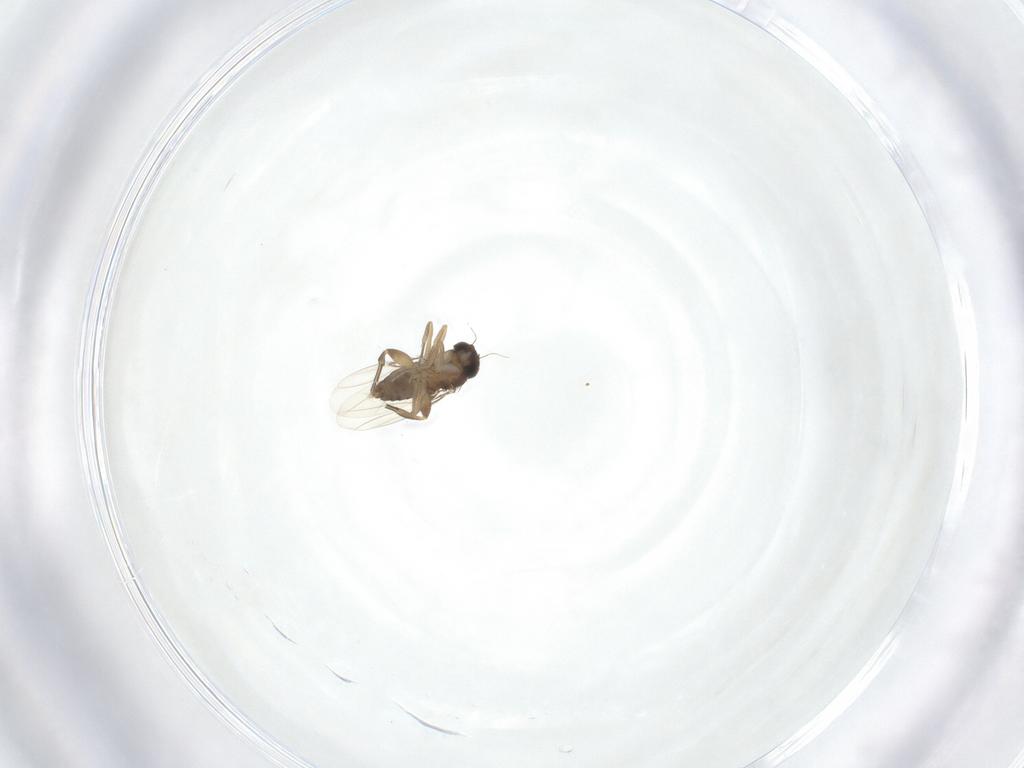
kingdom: Animalia
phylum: Arthropoda
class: Insecta
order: Diptera
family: Phoridae
